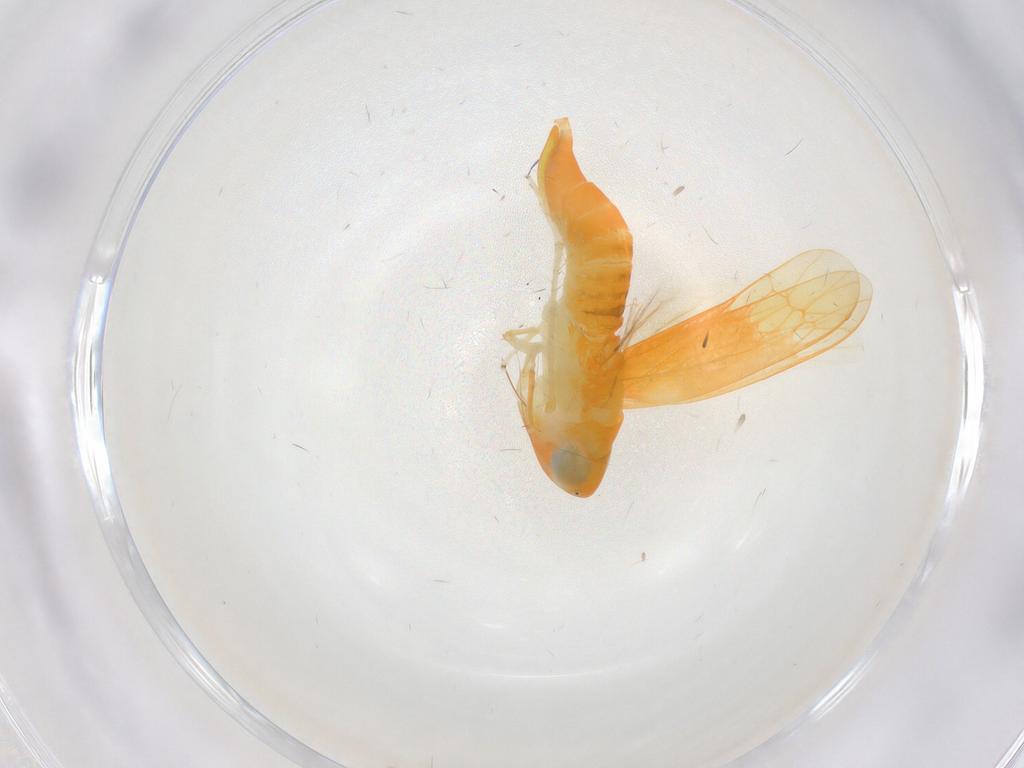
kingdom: Animalia
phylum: Arthropoda
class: Insecta
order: Hemiptera
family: Cicadellidae
